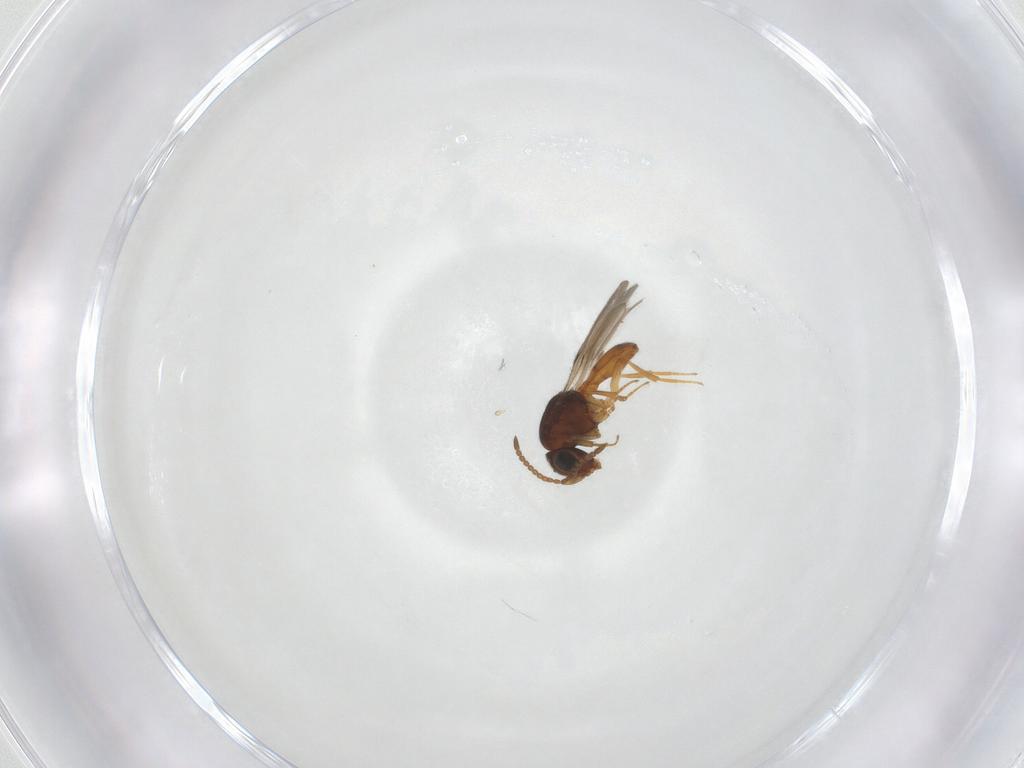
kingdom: Animalia
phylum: Arthropoda
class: Insecta
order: Hymenoptera
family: Scelionidae
